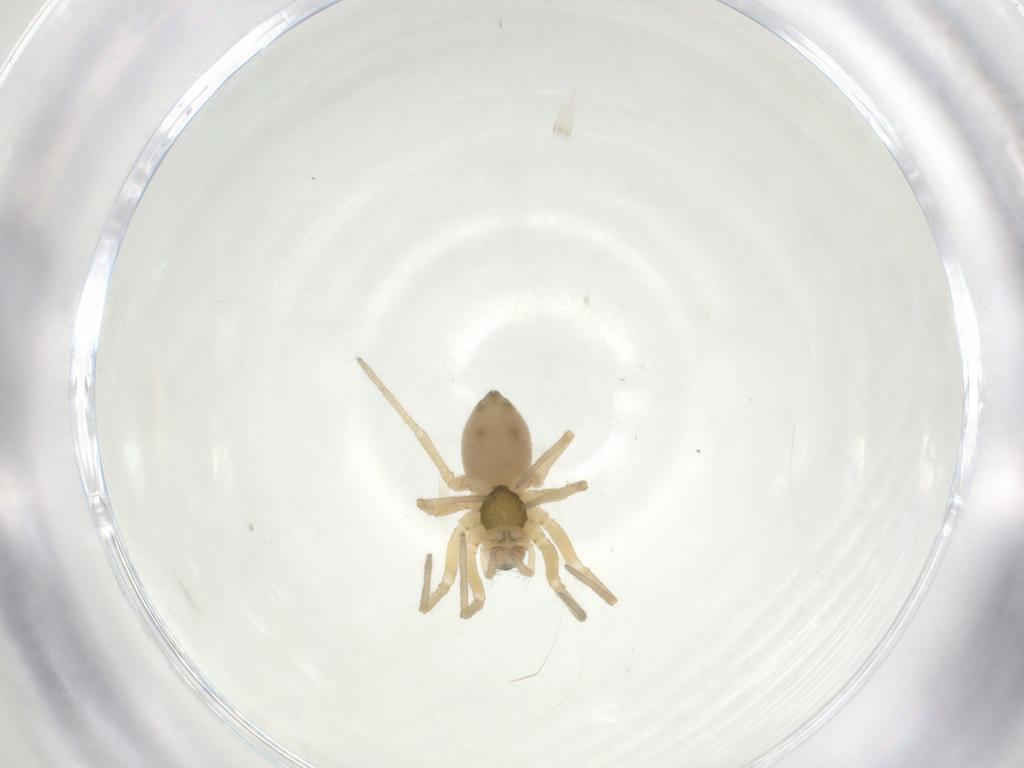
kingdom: Animalia
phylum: Arthropoda
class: Arachnida
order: Araneae
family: Linyphiidae
